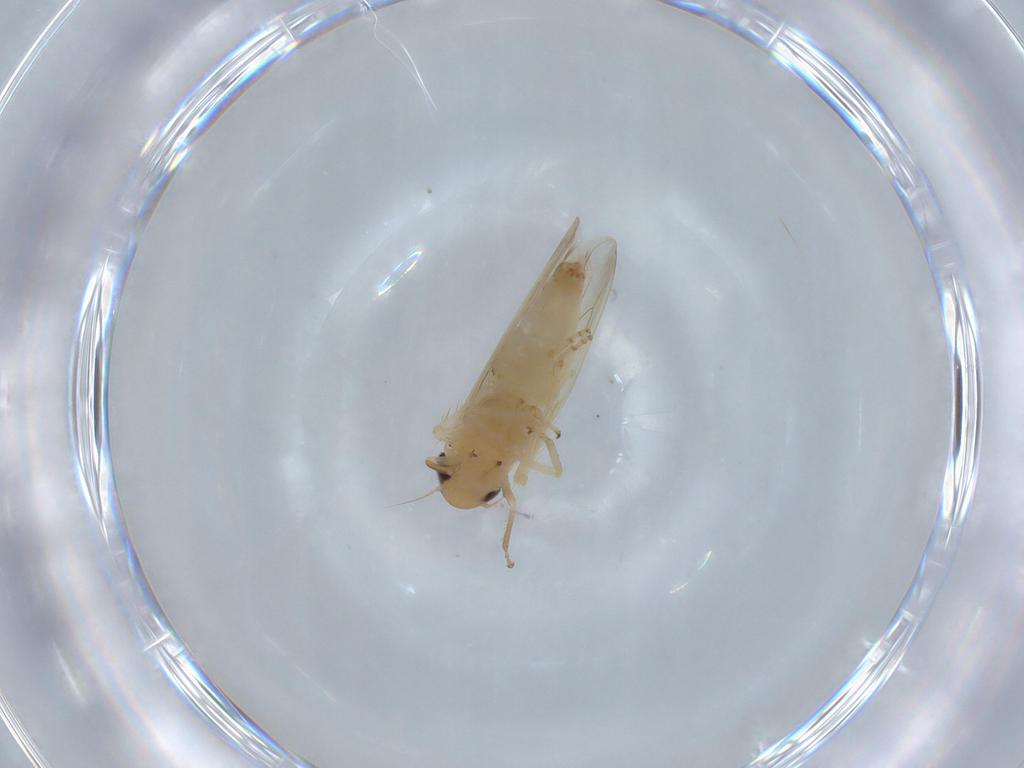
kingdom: Animalia
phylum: Arthropoda
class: Insecta
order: Hemiptera
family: Cicadellidae
